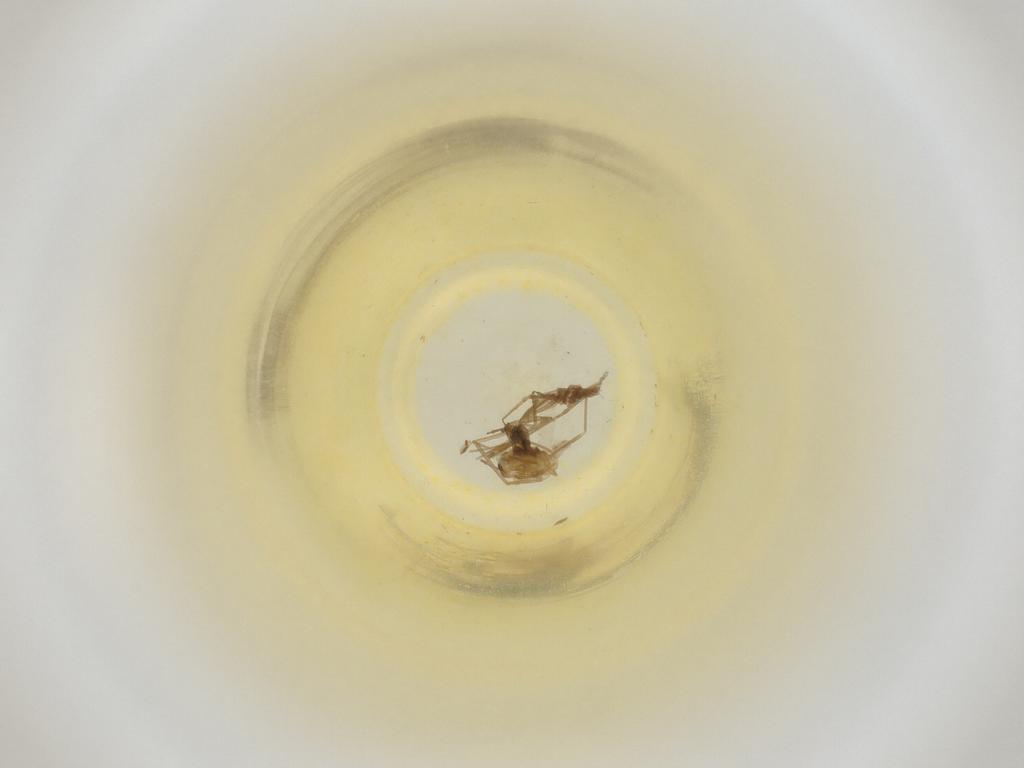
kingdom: Animalia
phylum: Arthropoda
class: Insecta
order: Diptera
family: Cecidomyiidae
